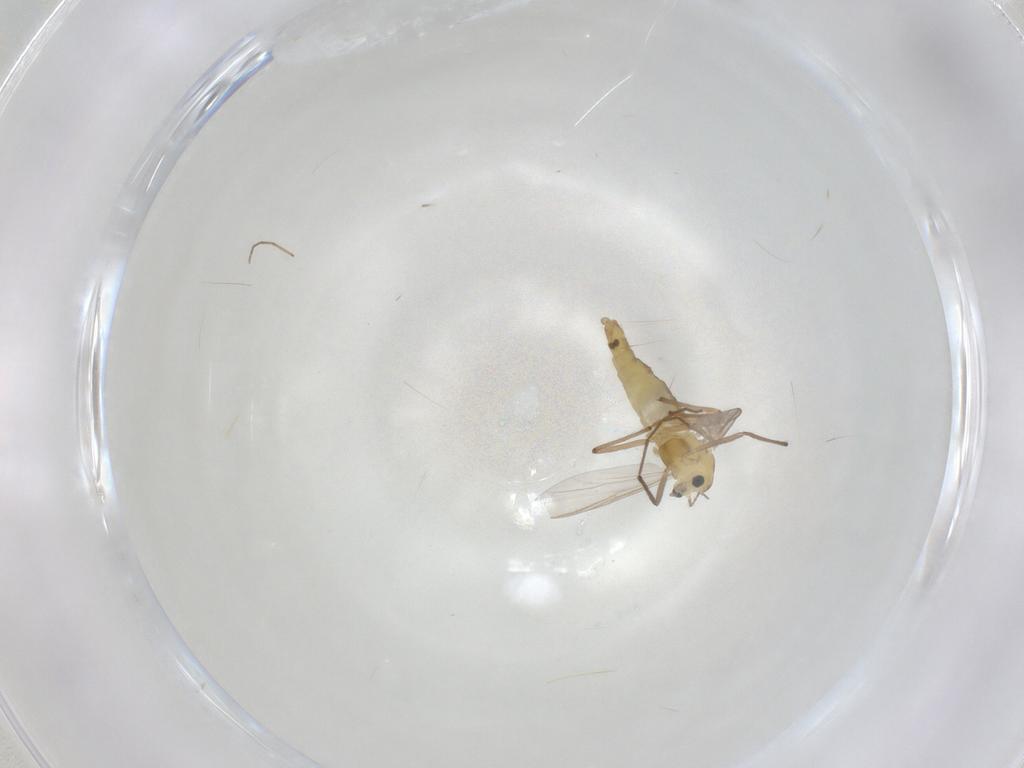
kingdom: Animalia
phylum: Arthropoda
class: Insecta
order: Diptera
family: Chironomidae
